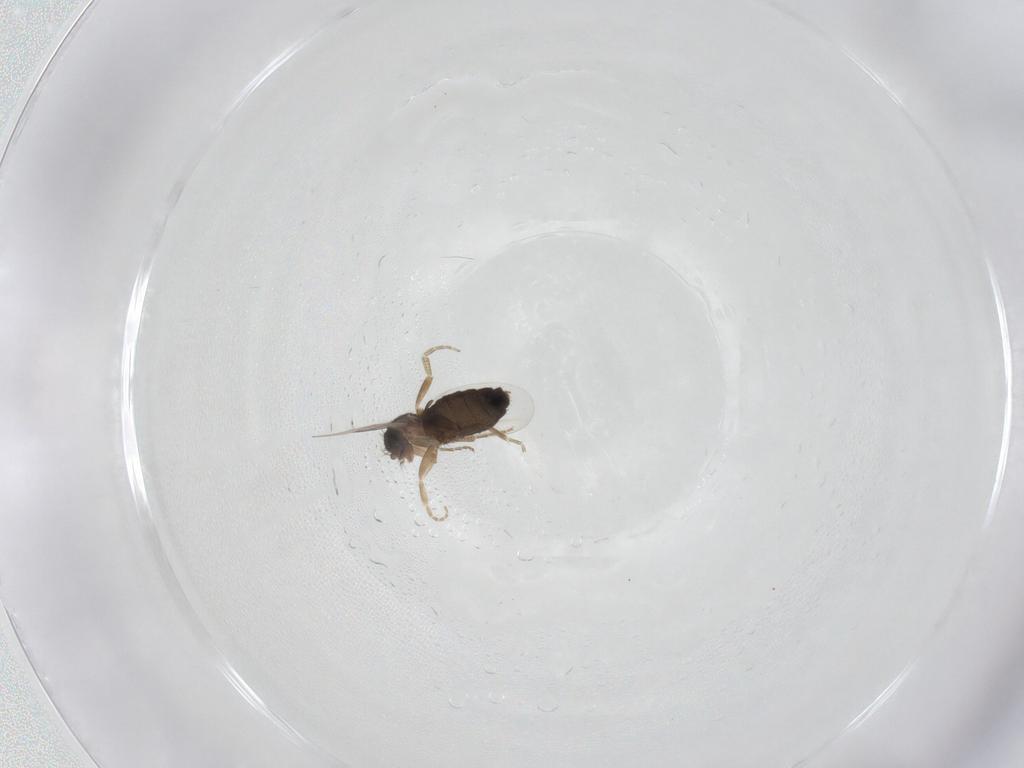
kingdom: Animalia
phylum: Arthropoda
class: Insecta
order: Diptera
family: Phoridae
